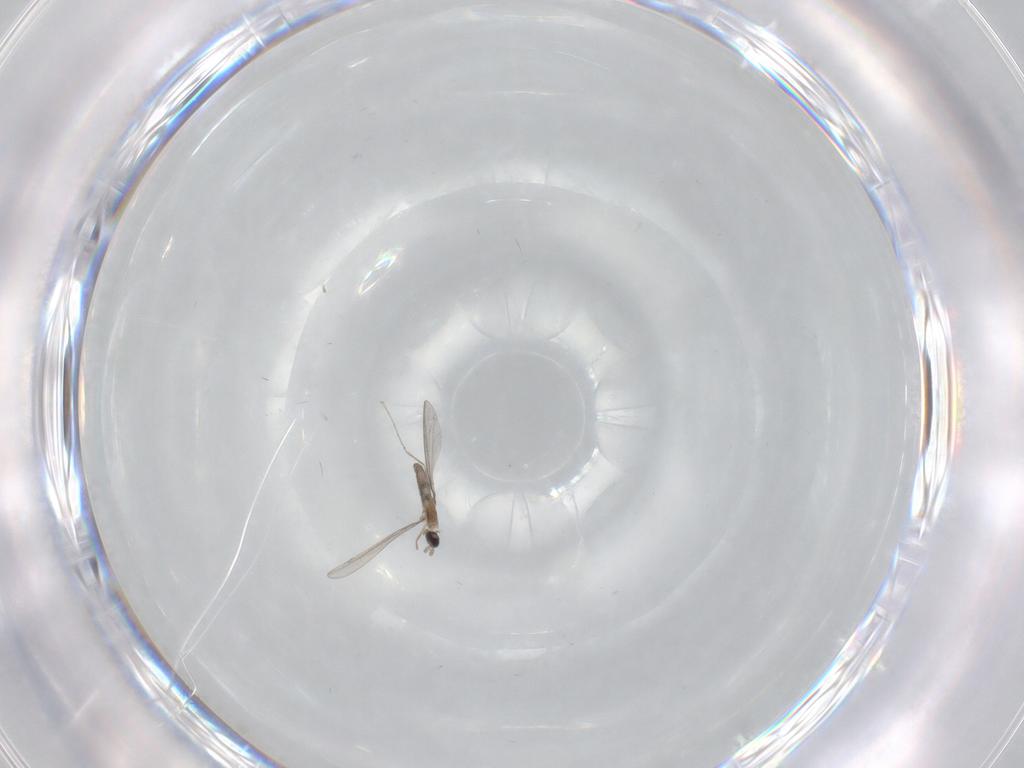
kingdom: Animalia
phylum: Arthropoda
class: Insecta
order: Diptera
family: Cecidomyiidae
